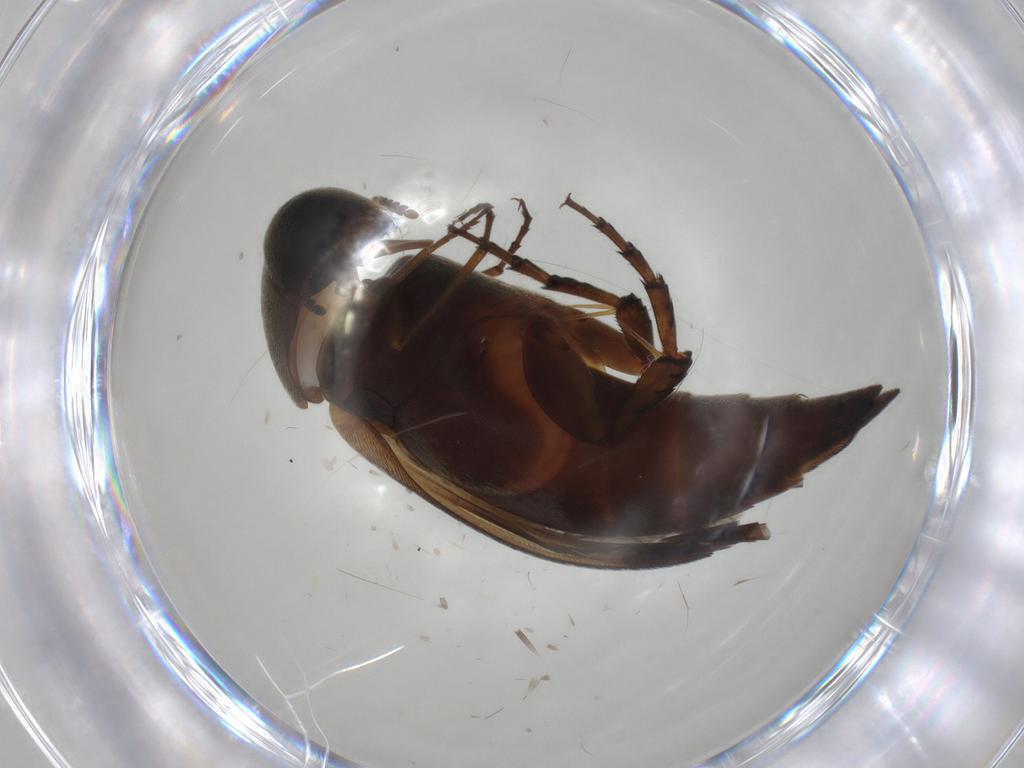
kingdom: Animalia
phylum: Arthropoda
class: Insecta
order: Coleoptera
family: Mordellidae
